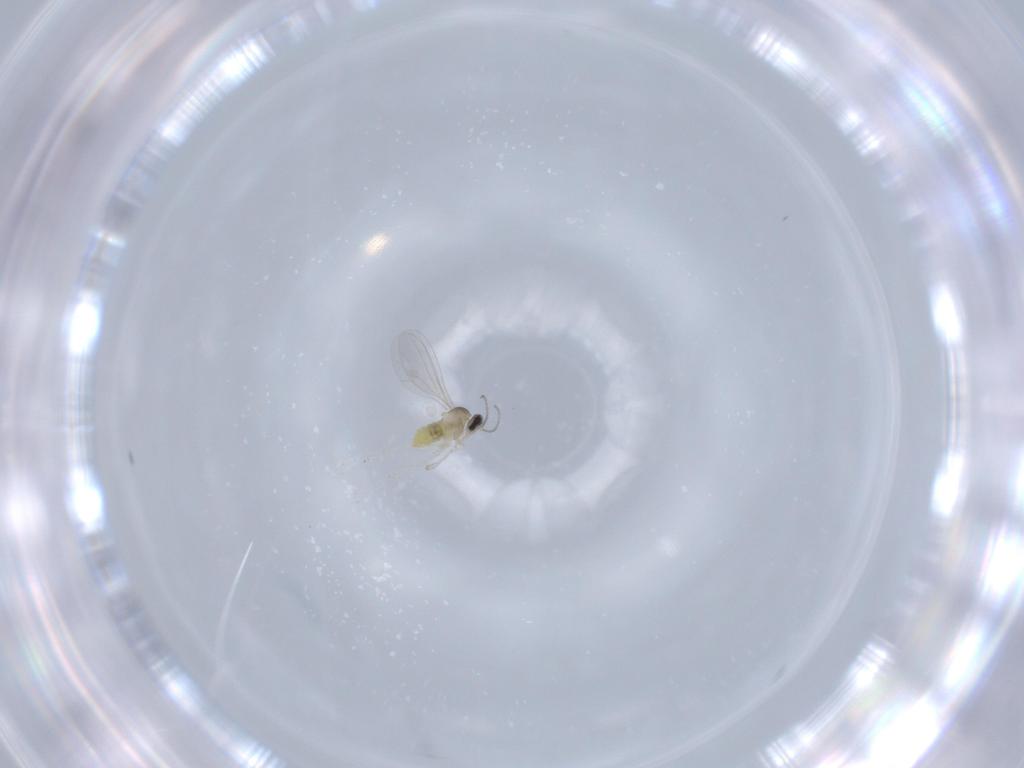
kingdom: Animalia
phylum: Arthropoda
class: Insecta
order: Diptera
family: Cecidomyiidae
